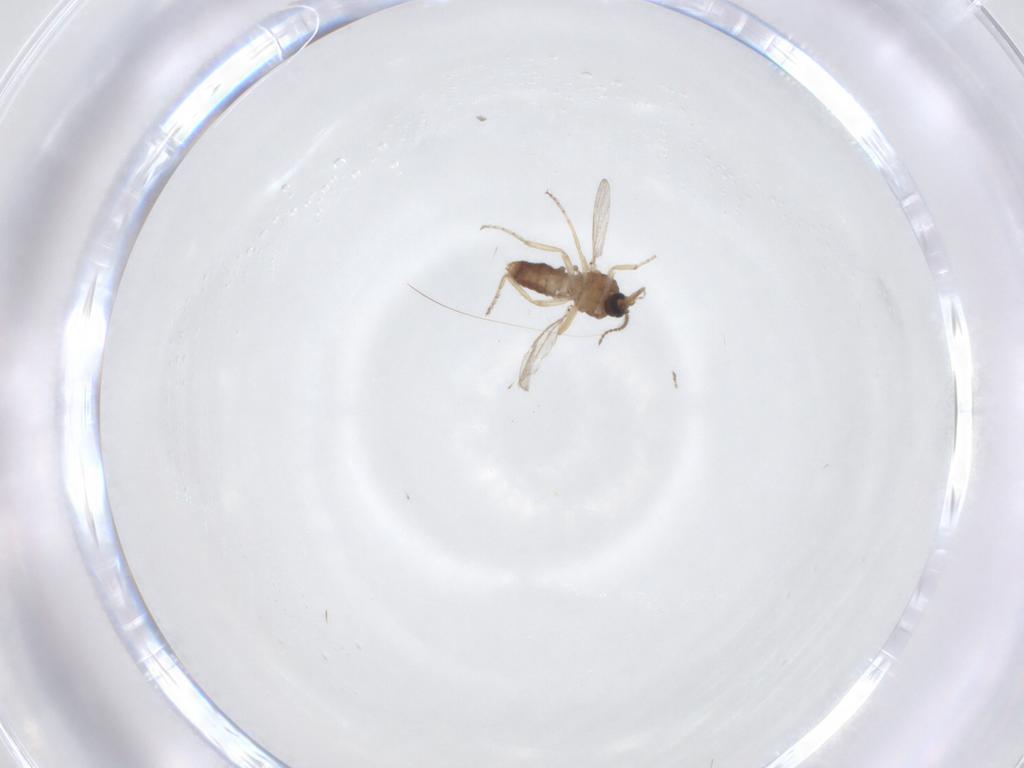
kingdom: Animalia
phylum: Arthropoda
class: Insecta
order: Diptera
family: Ceratopogonidae
